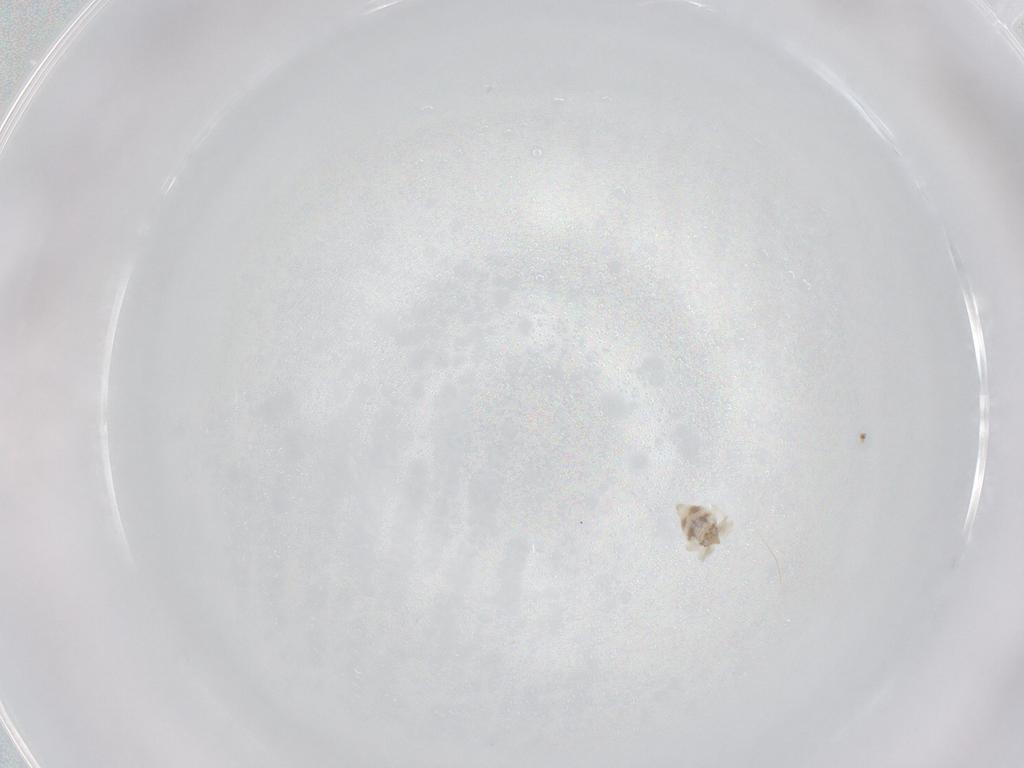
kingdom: Animalia
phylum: Arthropoda
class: Insecta
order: Neuroptera
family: Coniopterygidae
